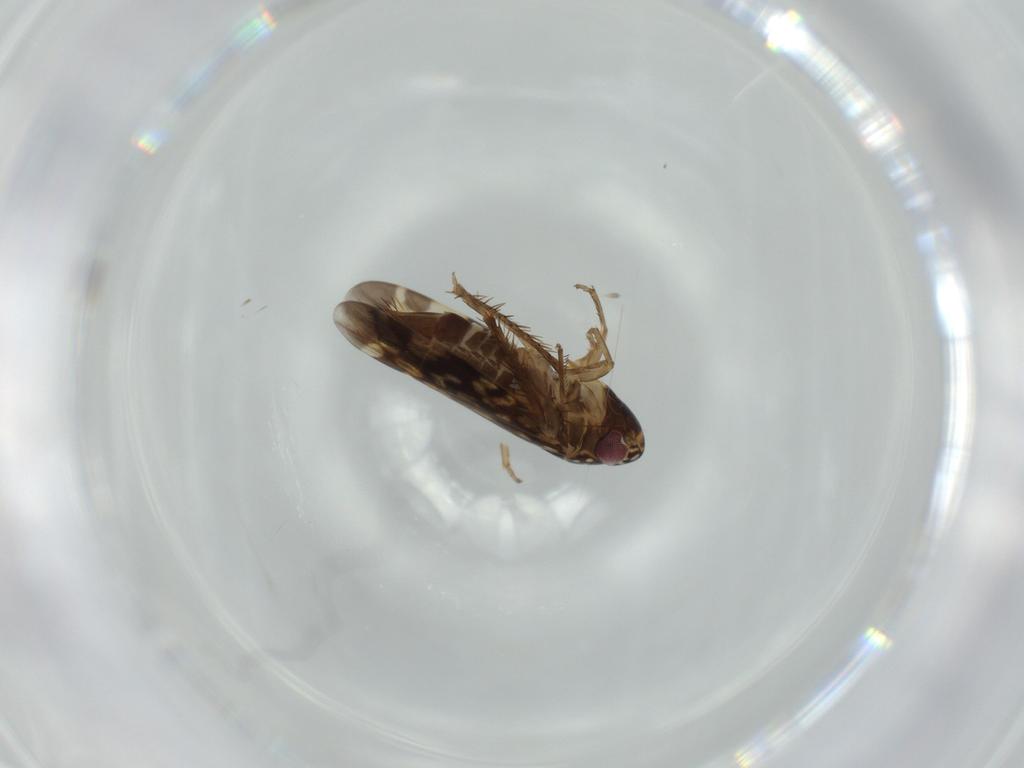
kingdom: Animalia
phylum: Arthropoda
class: Insecta
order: Hemiptera
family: Cicadellidae
